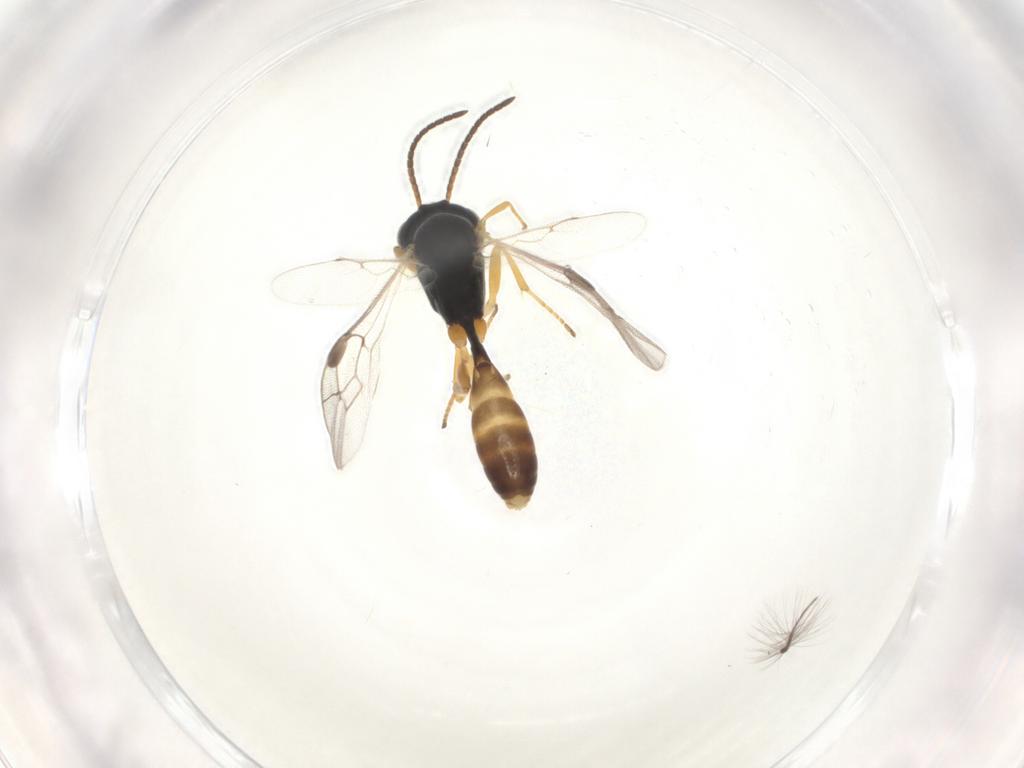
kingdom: Animalia
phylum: Arthropoda
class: Insecta
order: Hymenoptera
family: Ichneumonidae
